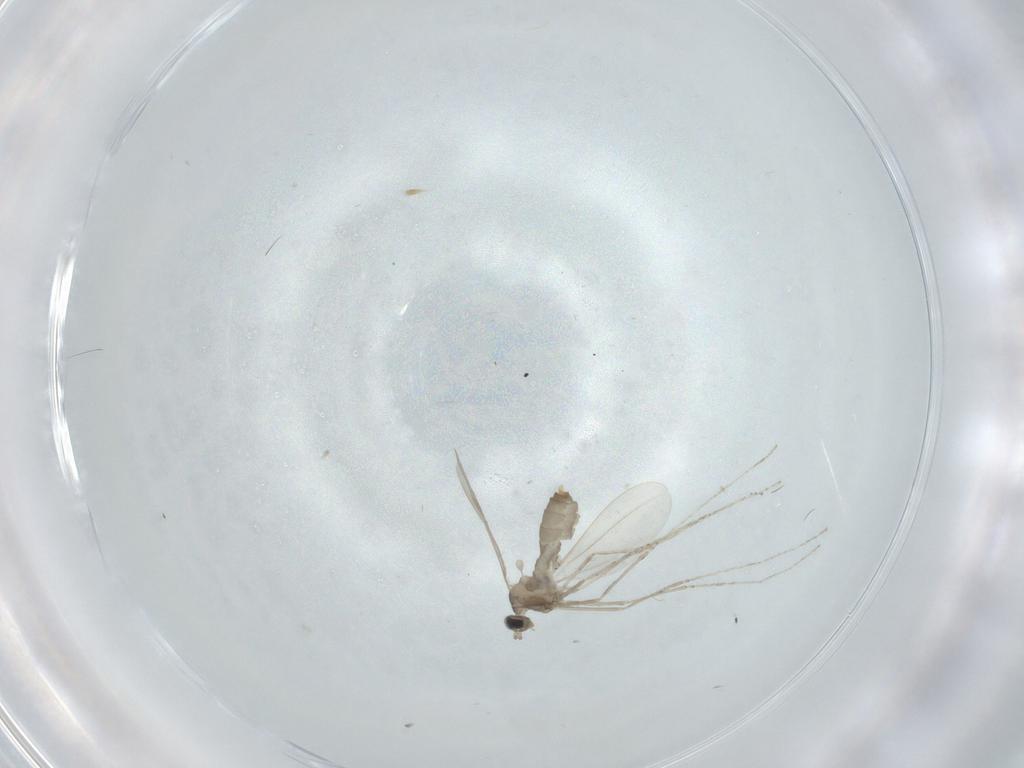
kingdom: Animalia
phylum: Arthropoda
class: Insecta
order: Diptera
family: Cecidomyiidae
